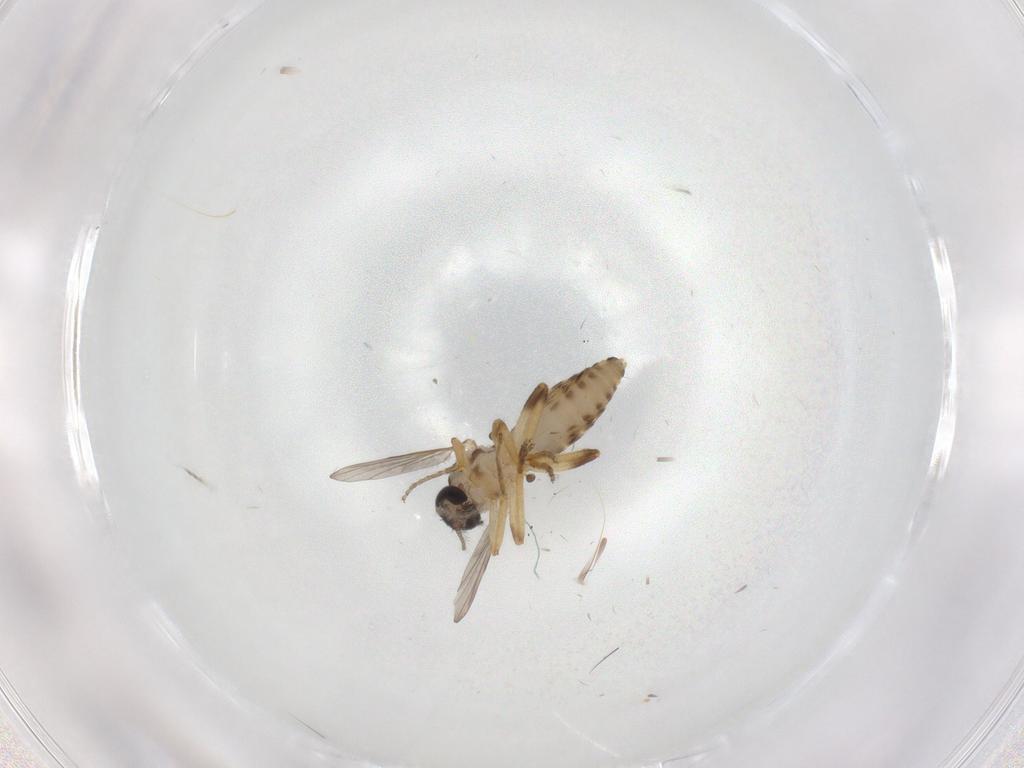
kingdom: Animalia
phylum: Arthropoda
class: Insecta
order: Diptera
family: Ceratopogonidae
